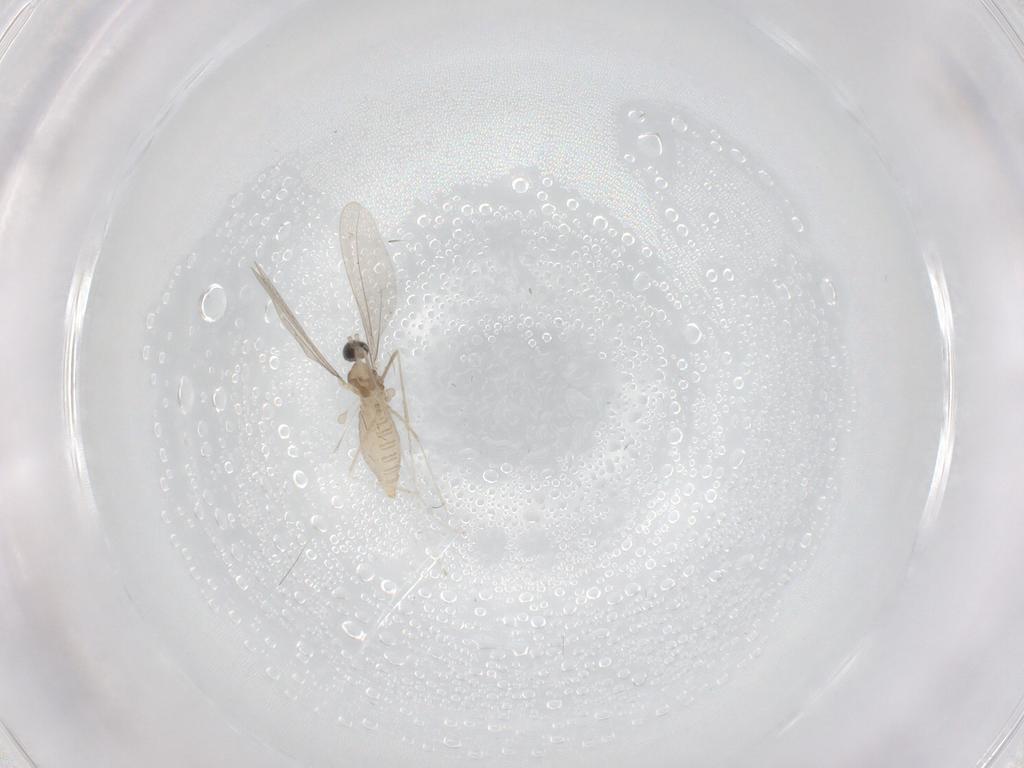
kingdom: Animalia
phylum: Arthropoda
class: Insecta
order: Diptera
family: Cecidomyiidae
